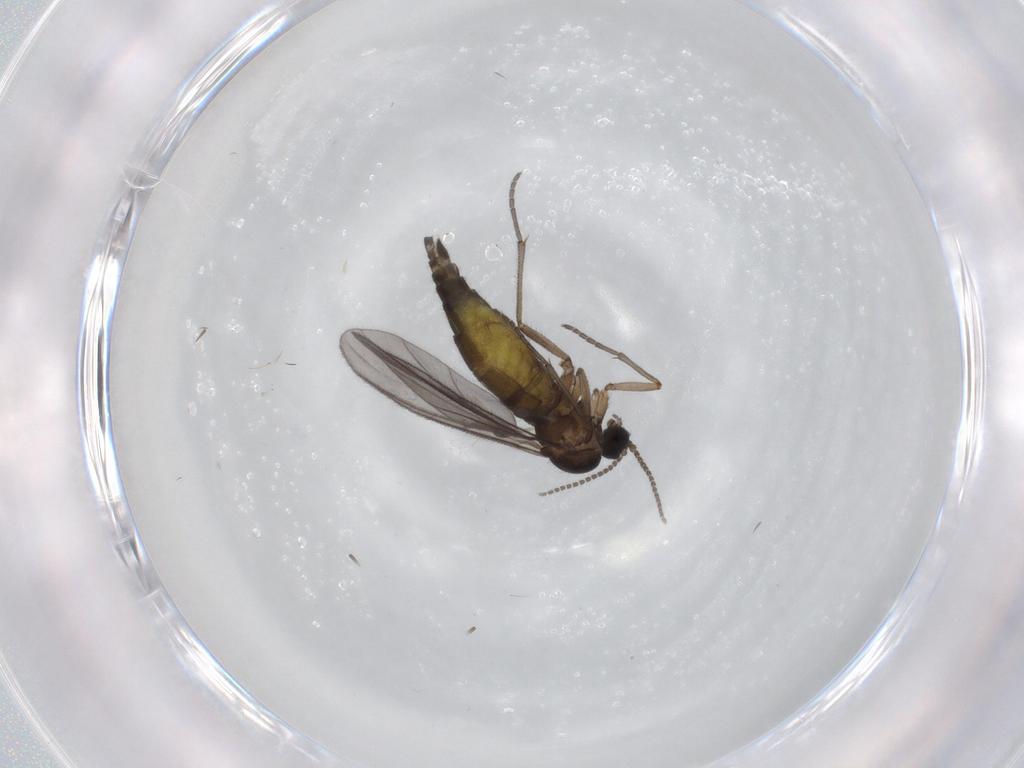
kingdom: Animalia
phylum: Arthropoda
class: Insecta
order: Diptera
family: Sciaridae
